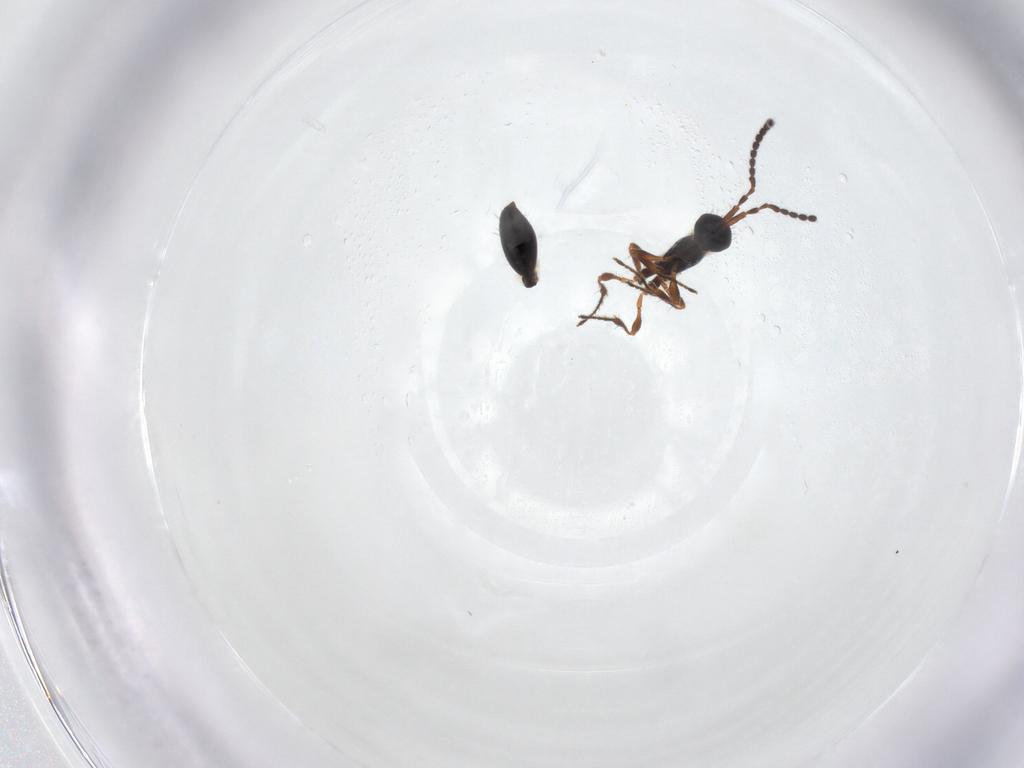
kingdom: Animalia
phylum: Arthropoda
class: Insecta
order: Hymenoptera
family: Diapriidae
